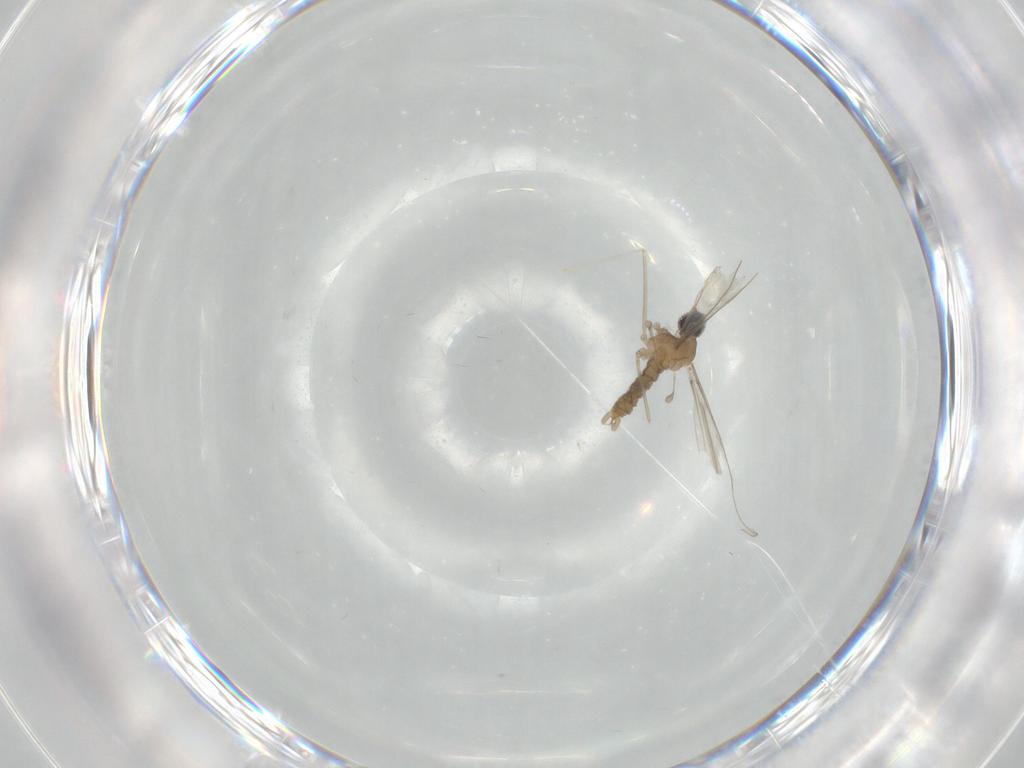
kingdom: Animalia
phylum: Arthropoda
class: Insecta
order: Diptera
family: Cecidomyiidae
